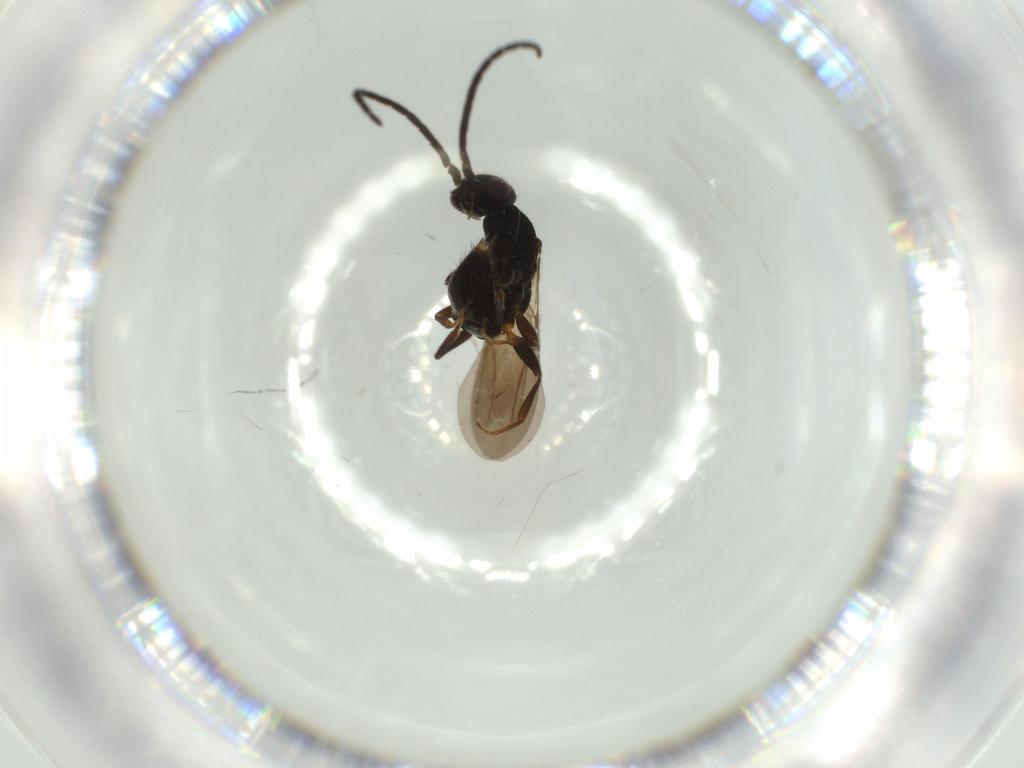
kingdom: Animalia
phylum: Arthropoda
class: Insecta
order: Hymenoptera
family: Bethylidae
